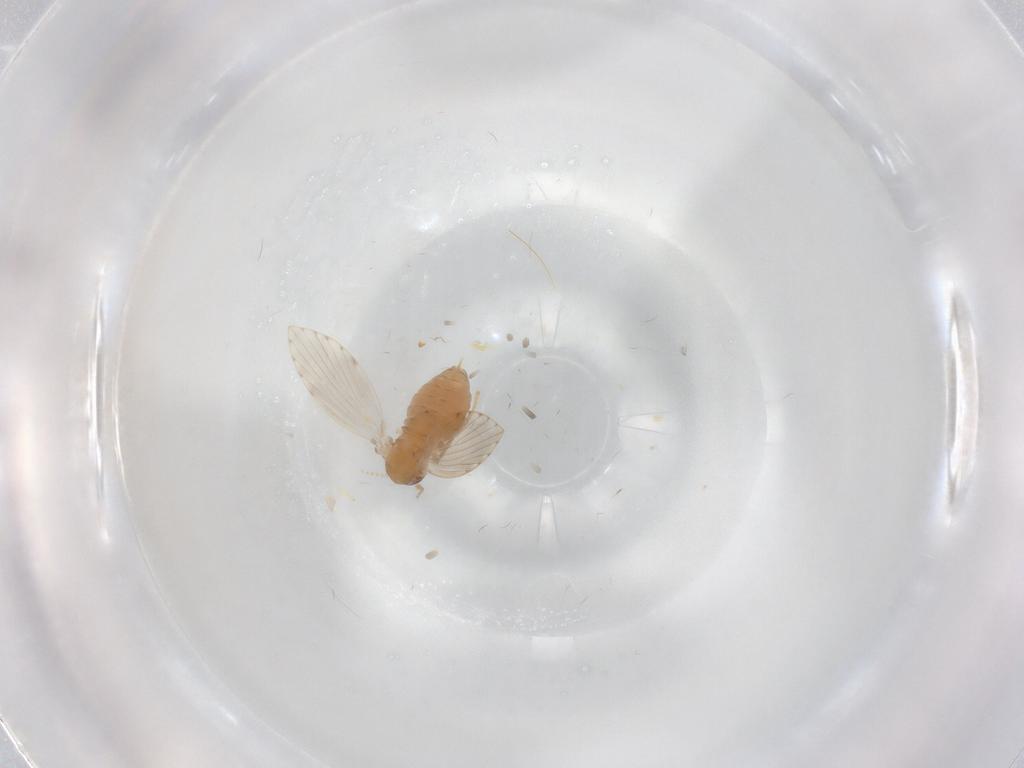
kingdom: Animalia
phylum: Arthropoda
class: Insecta
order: Diptera
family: Psychodidae
